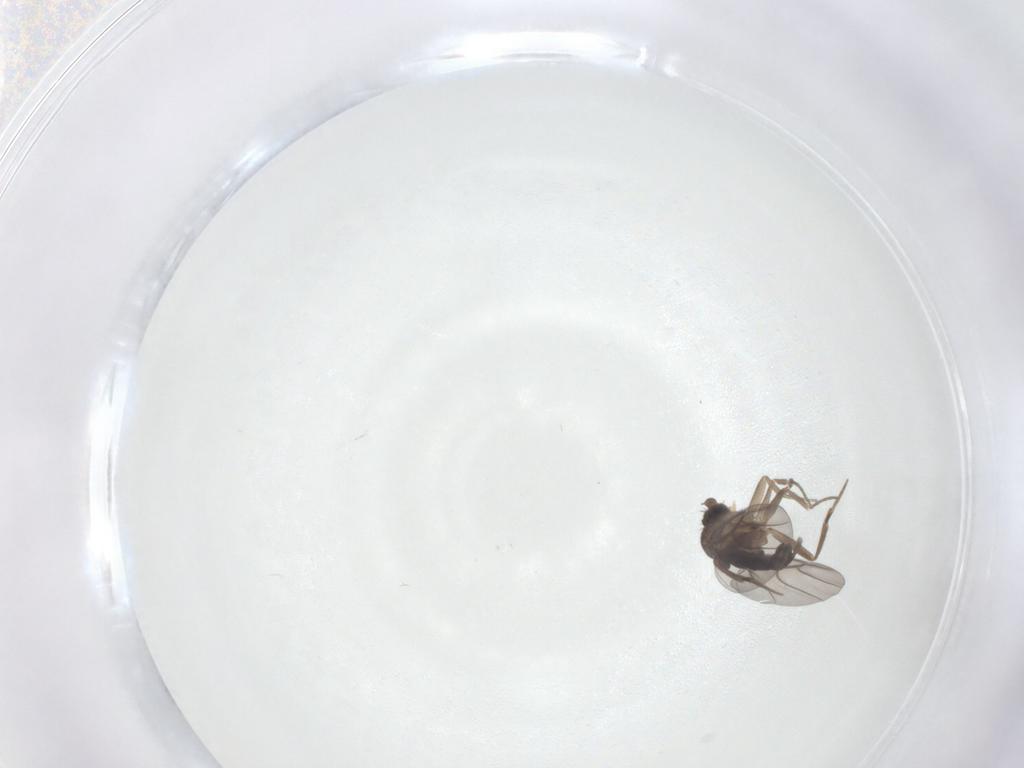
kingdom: Animalia
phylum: Arthropoda
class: Insecta
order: Diptera
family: Phoridae
